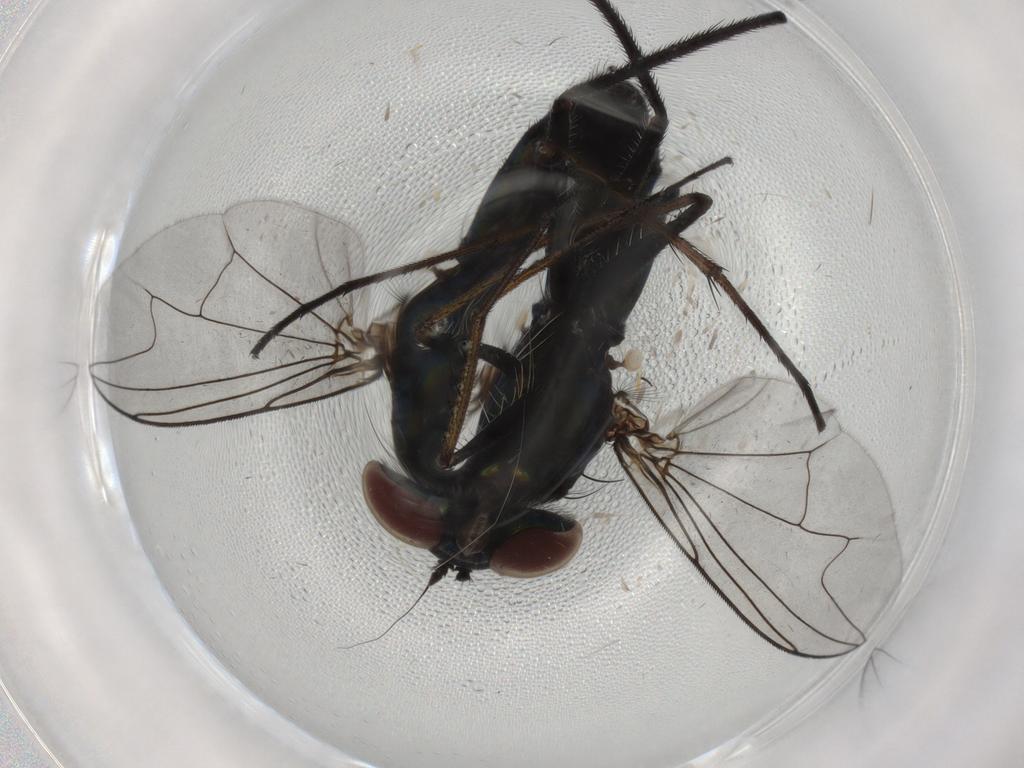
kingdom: Animalia
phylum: Arthropoda
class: Insecta
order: Diptera
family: Dolichopodidae
